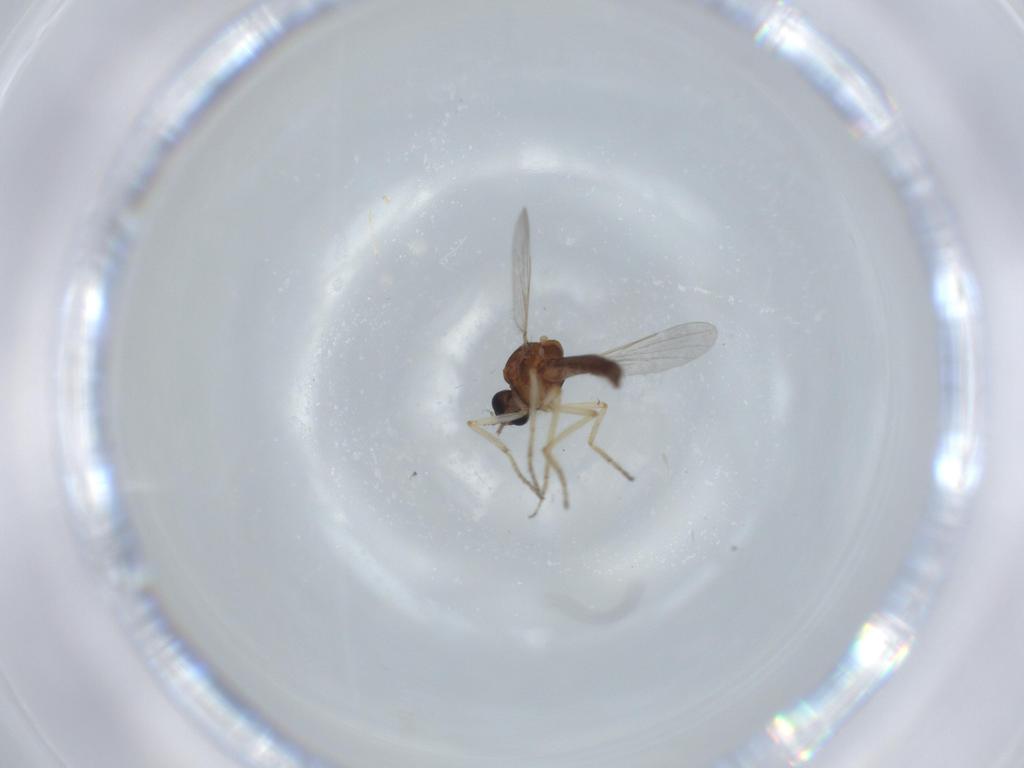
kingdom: Animalia
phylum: Arthropoda
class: Insecta
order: Diptera
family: Ceratopogonidae
